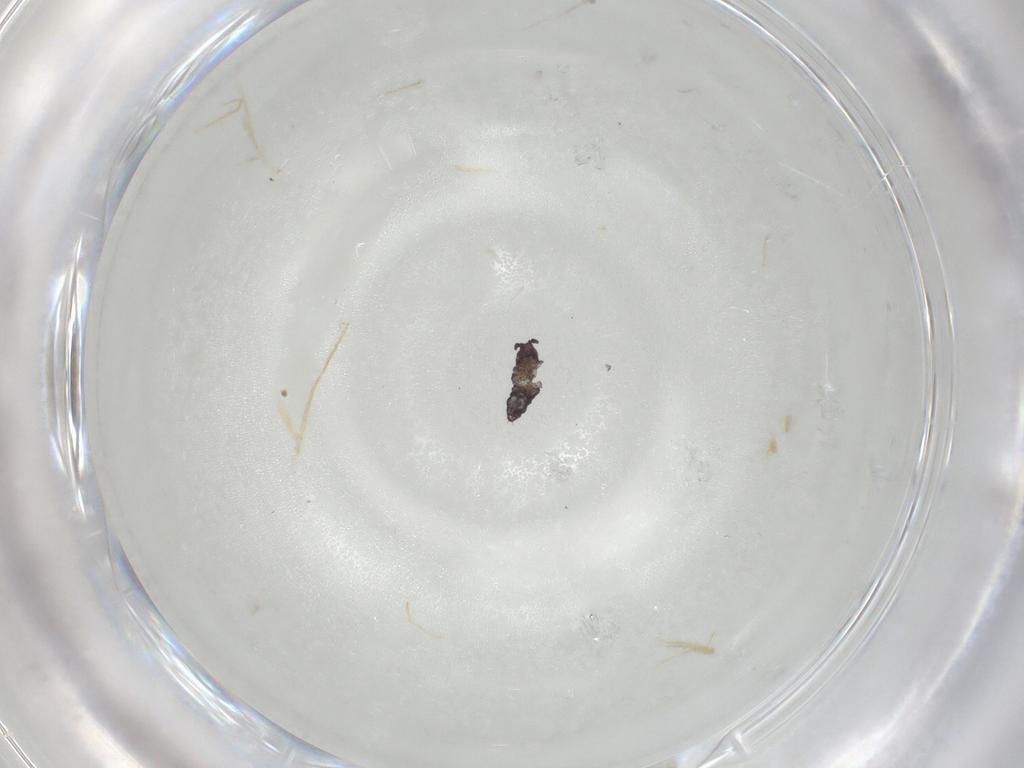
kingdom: Animalia
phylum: Arthropoda
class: Collembola
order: Poduromorpha
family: Hypogastruridae
